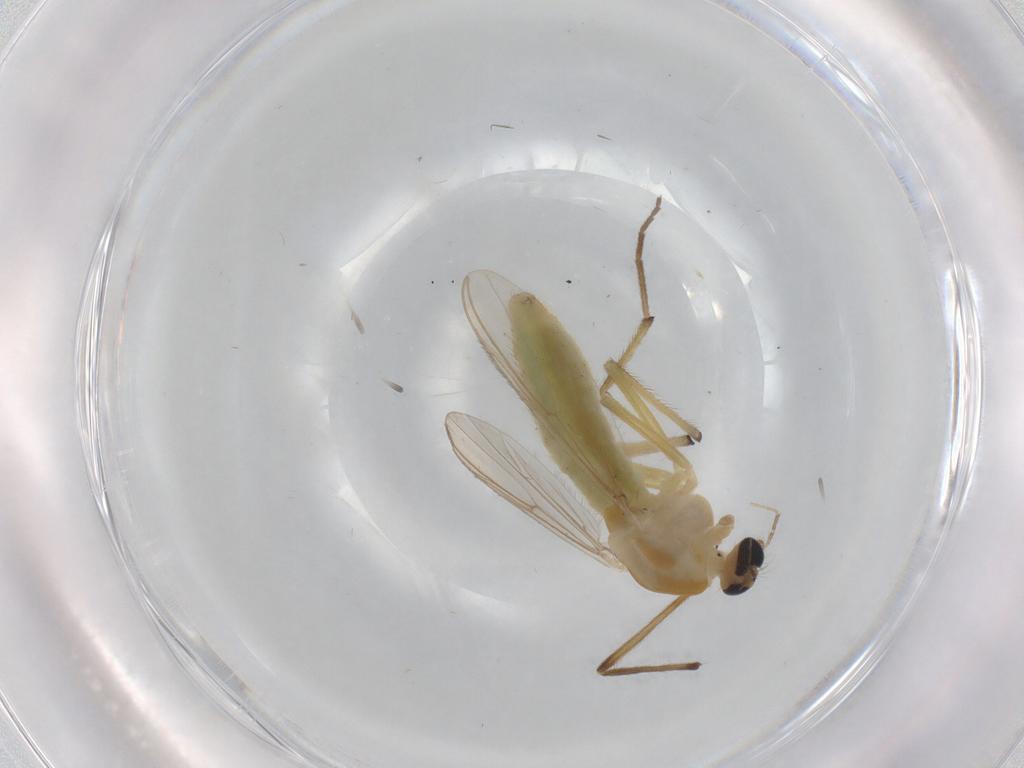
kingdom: Animalia
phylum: Arthropoda
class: Insecta
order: Diptera
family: Chironomidae
